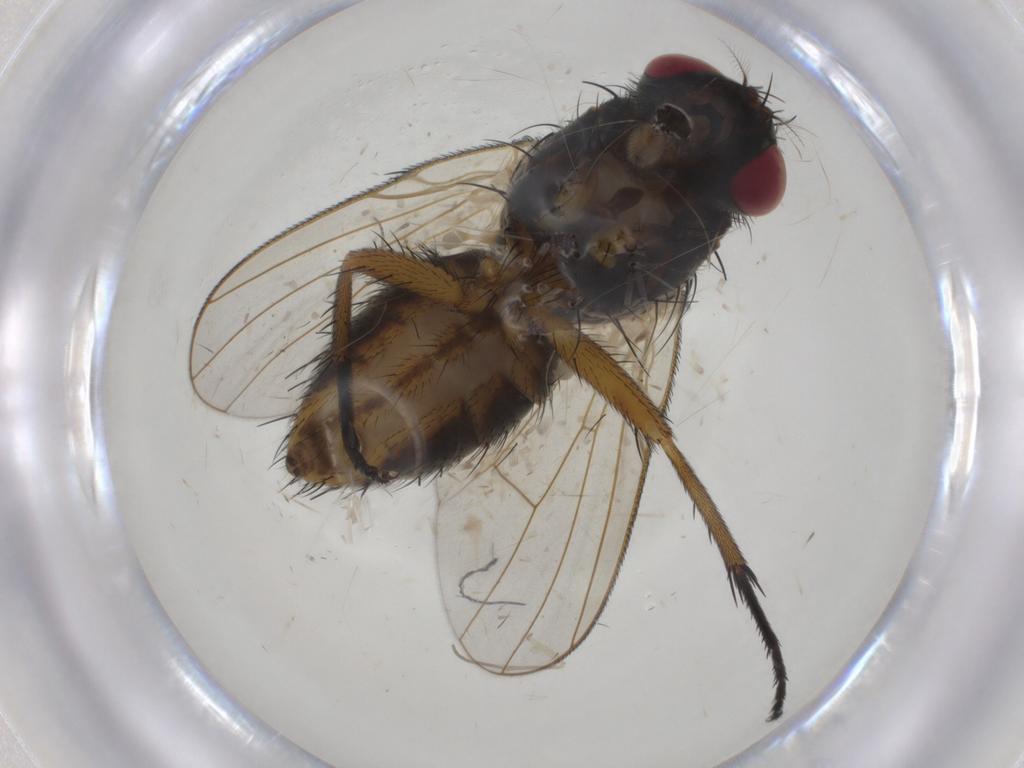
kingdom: Animalia
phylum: Arthropoda
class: Insecta
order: Diptera
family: Muscidae
